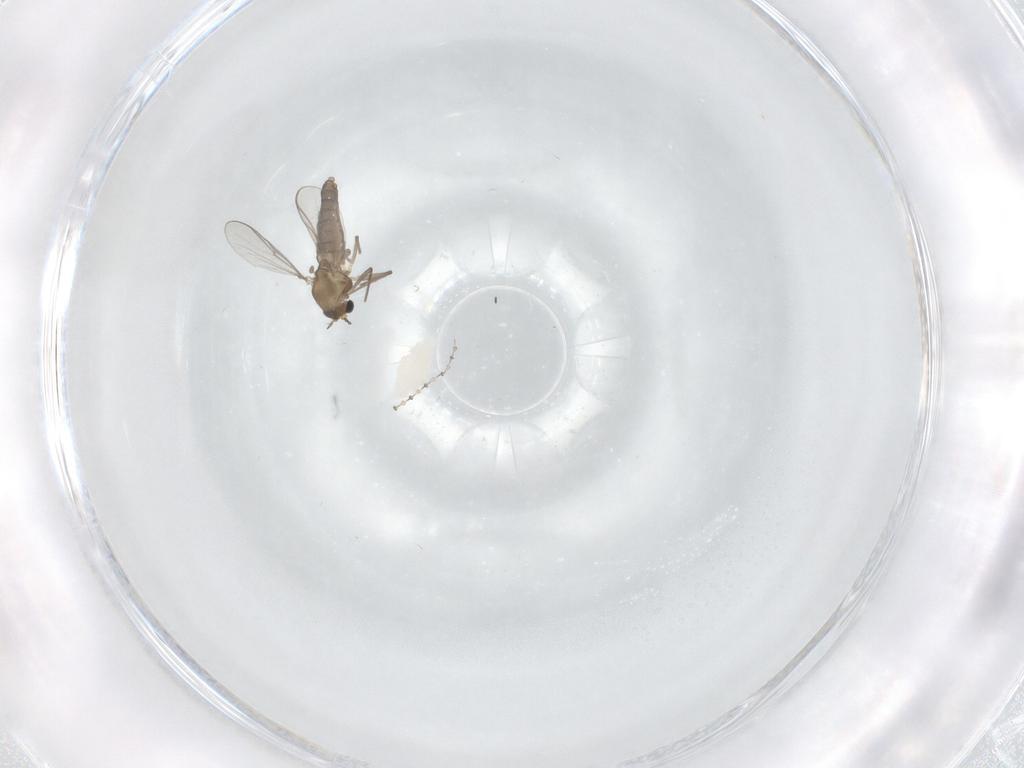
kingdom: Animalia
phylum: Arthropoda
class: Insecta
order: Diptera
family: Chironomidae
